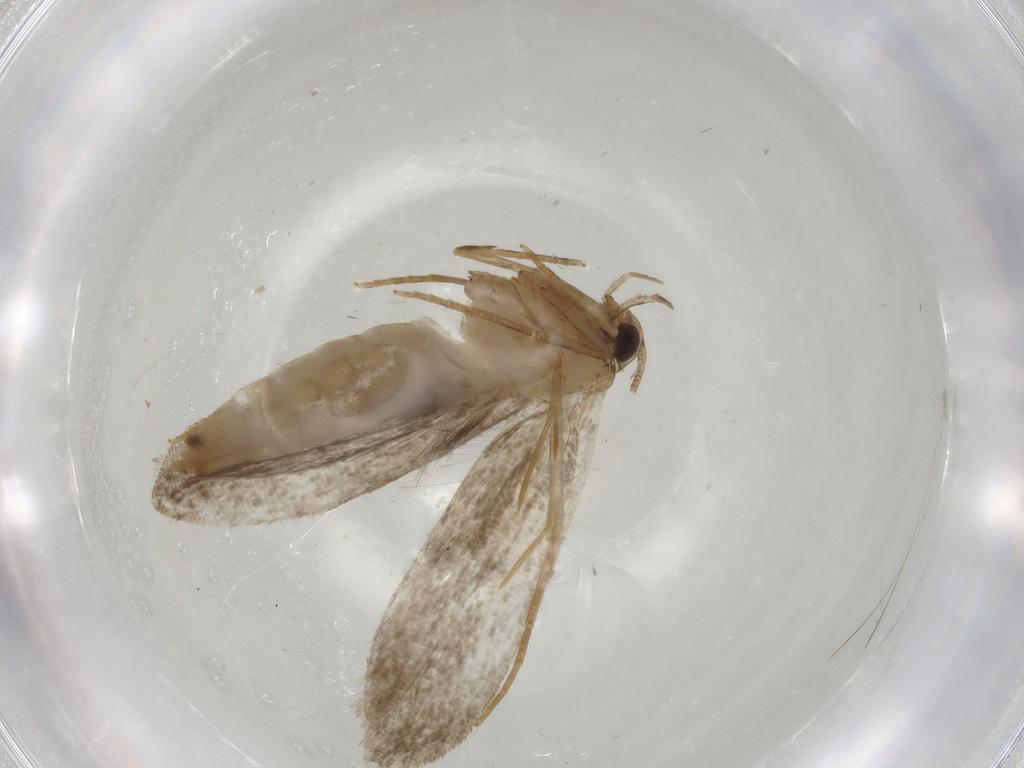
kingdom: Animalia
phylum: Arthropoda
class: Insecta
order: Lepidoptera
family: Tineidae
